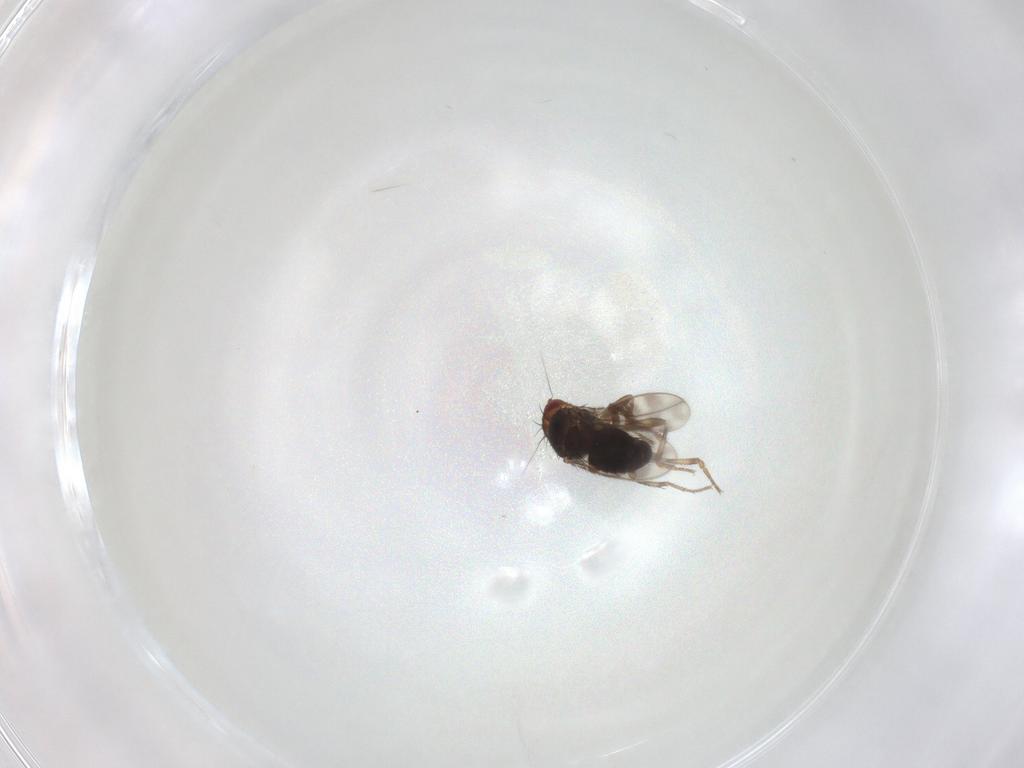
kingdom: Animalia
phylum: Arthropoda
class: Insecta
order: Diptera
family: Sphaeroceridae
